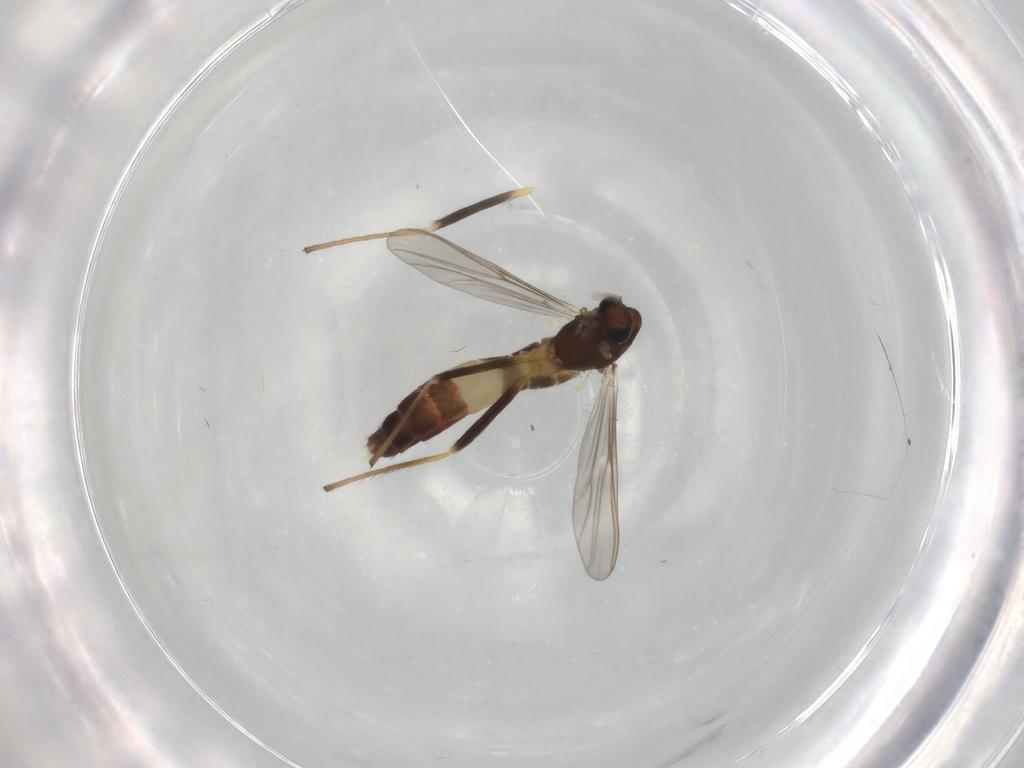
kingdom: Animalia
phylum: Arthropoda
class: Insecta
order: Diptera
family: Chironomidae
